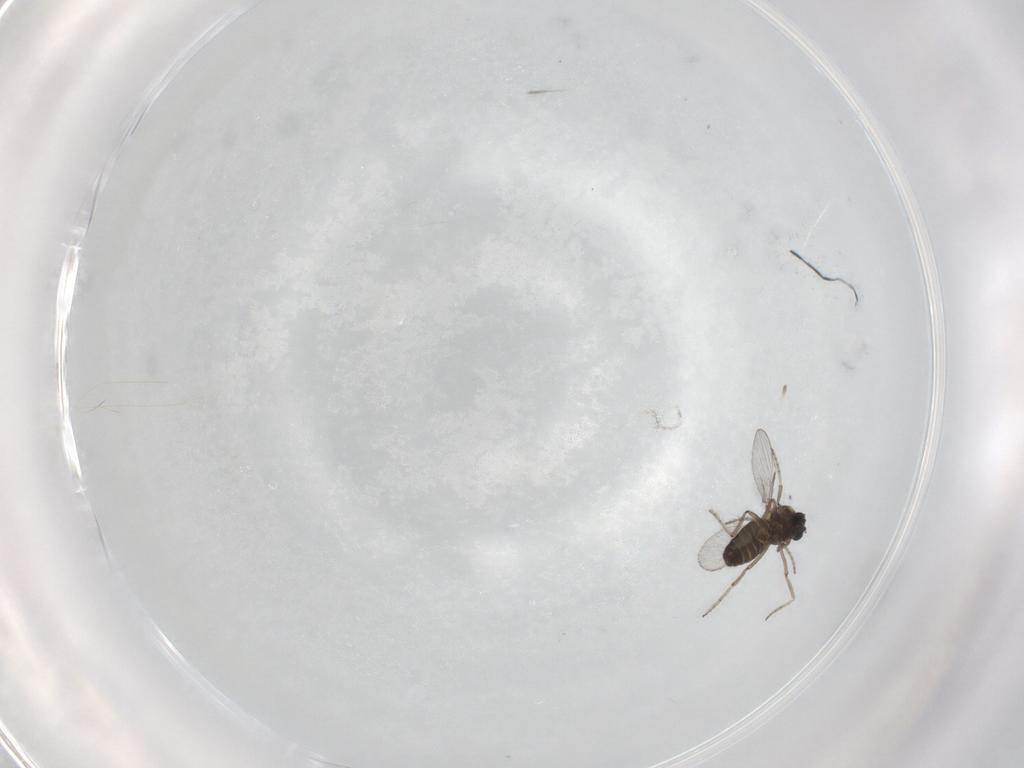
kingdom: Animalia
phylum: Arthropoda
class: Insecta
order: Diptera
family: Ceratopogonidae
